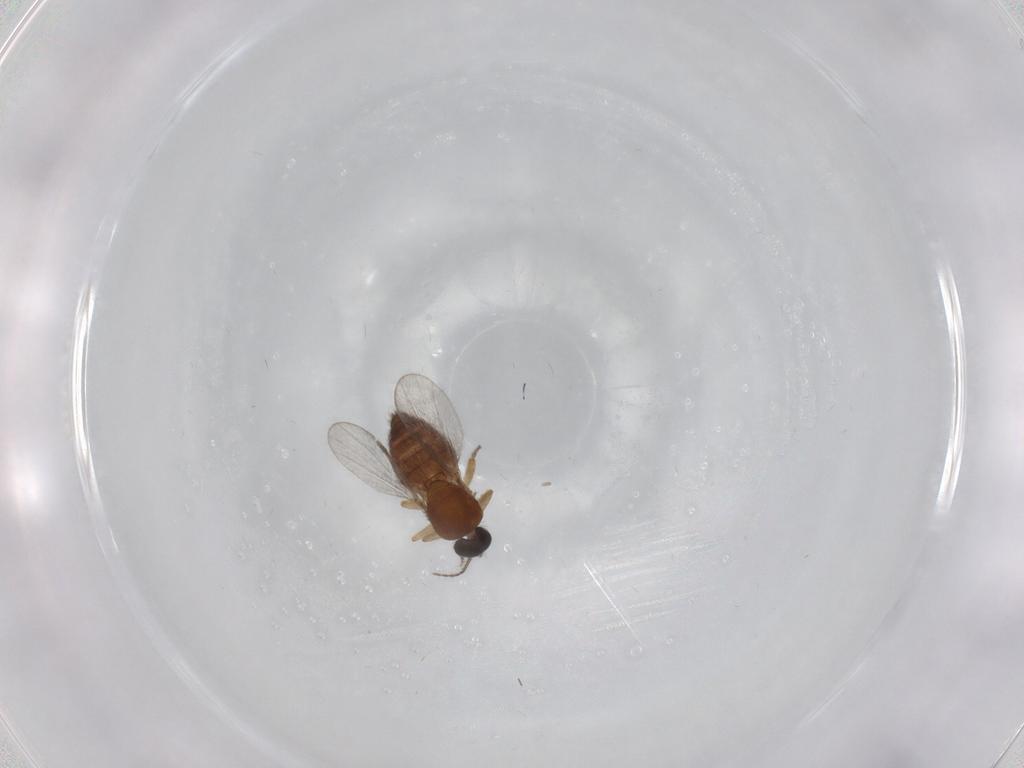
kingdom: Animalia
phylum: Arthropoda
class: Insecta
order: Diptera
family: Ceratopogonidae
